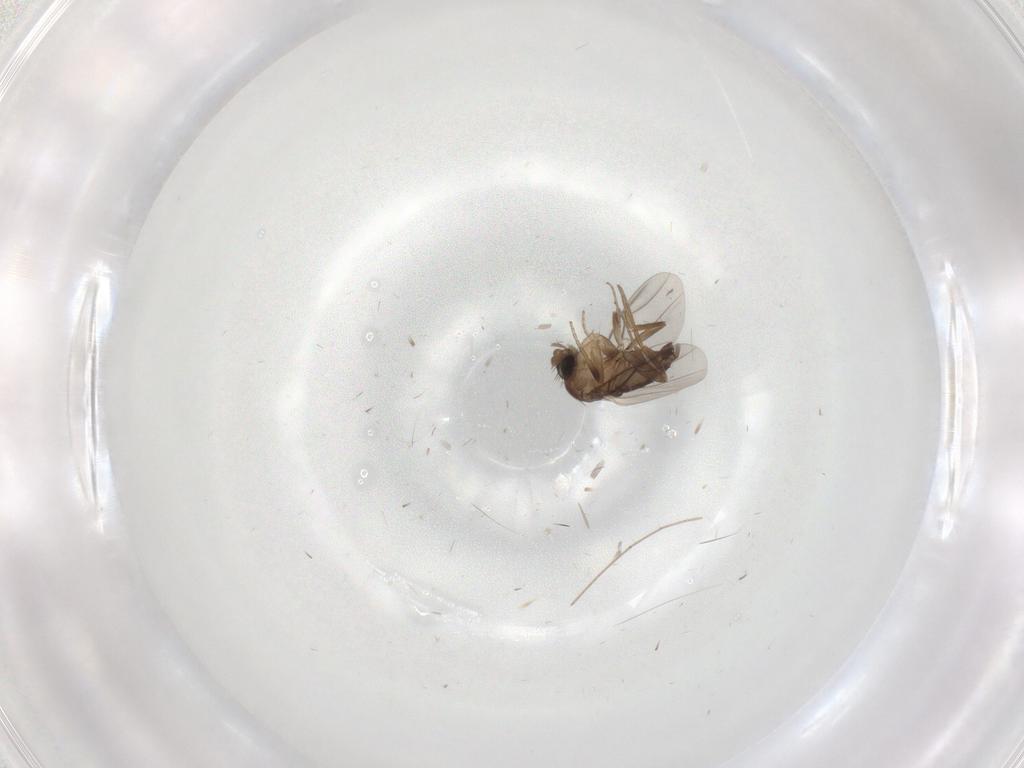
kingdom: Animalia
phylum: Arthropoda
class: Insecta
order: Diptera
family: Phoridae
